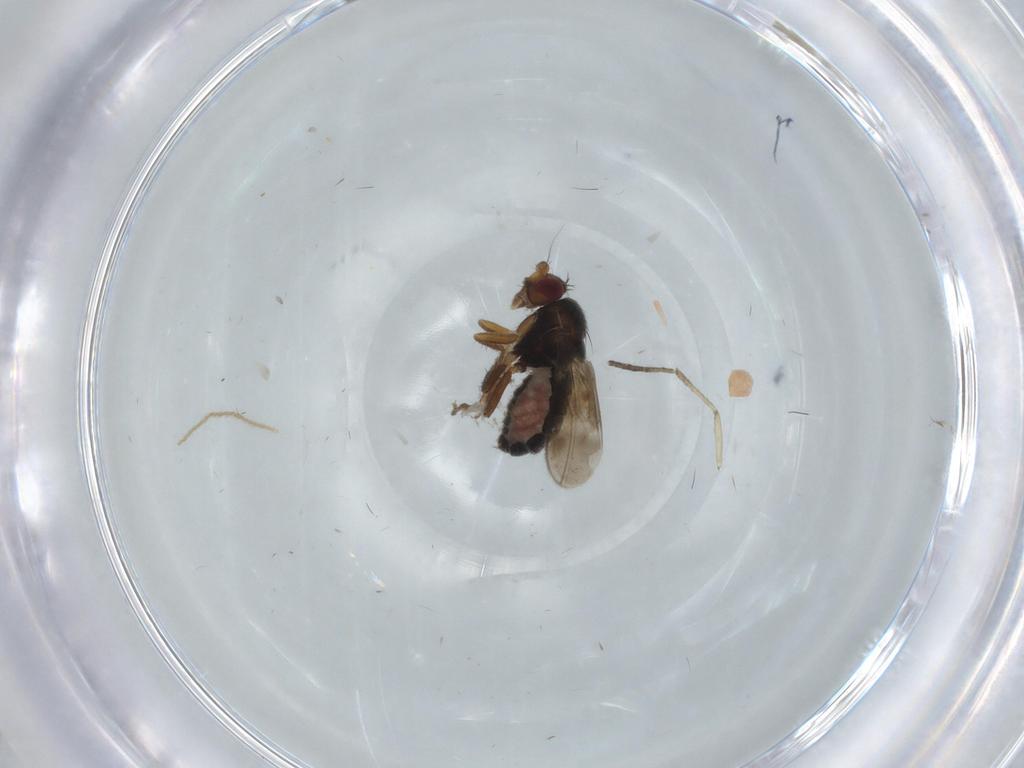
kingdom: Animalia
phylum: Arthropoda
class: Insecta
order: Diptera
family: Sphaeroceridae
